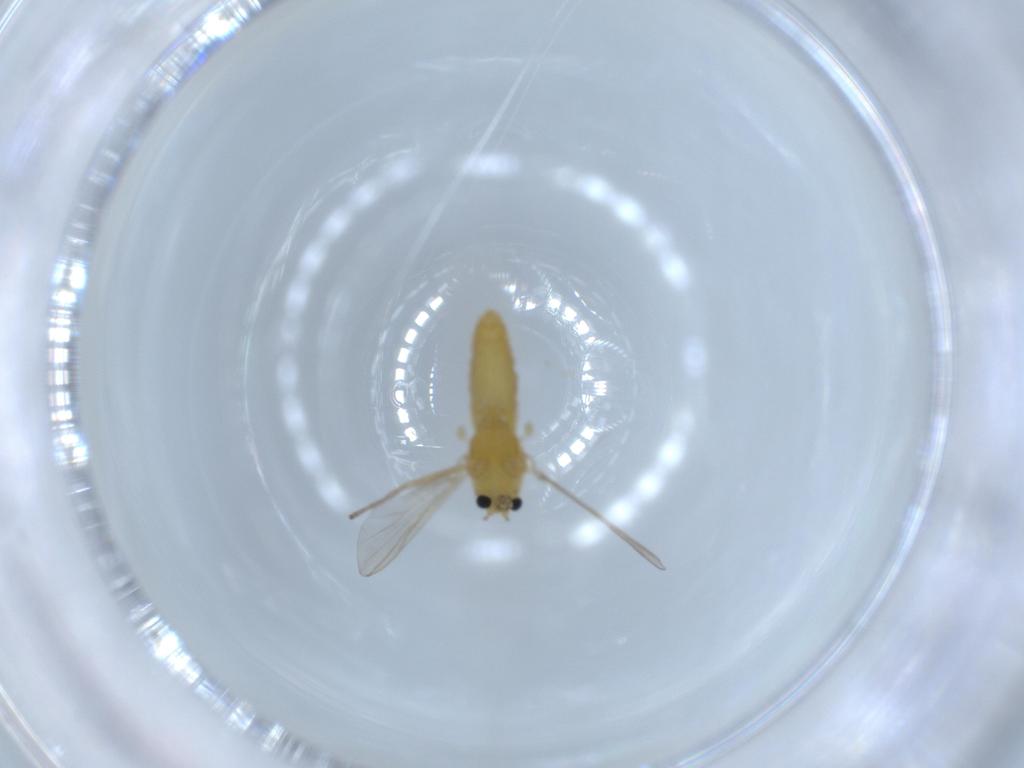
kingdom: Animalia
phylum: Arthropoda
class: Insecta
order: Diptera
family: Chironomidae
